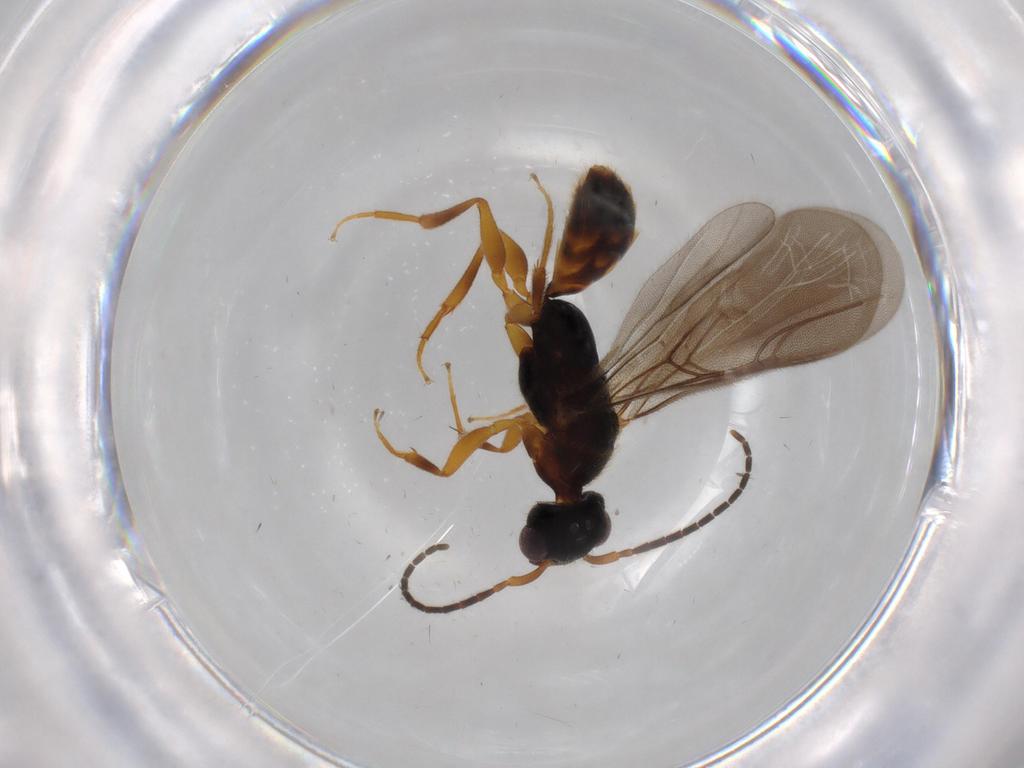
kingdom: Animalia
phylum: Arthropoda
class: Insecta
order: Hymenoptera
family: Bethylidae
